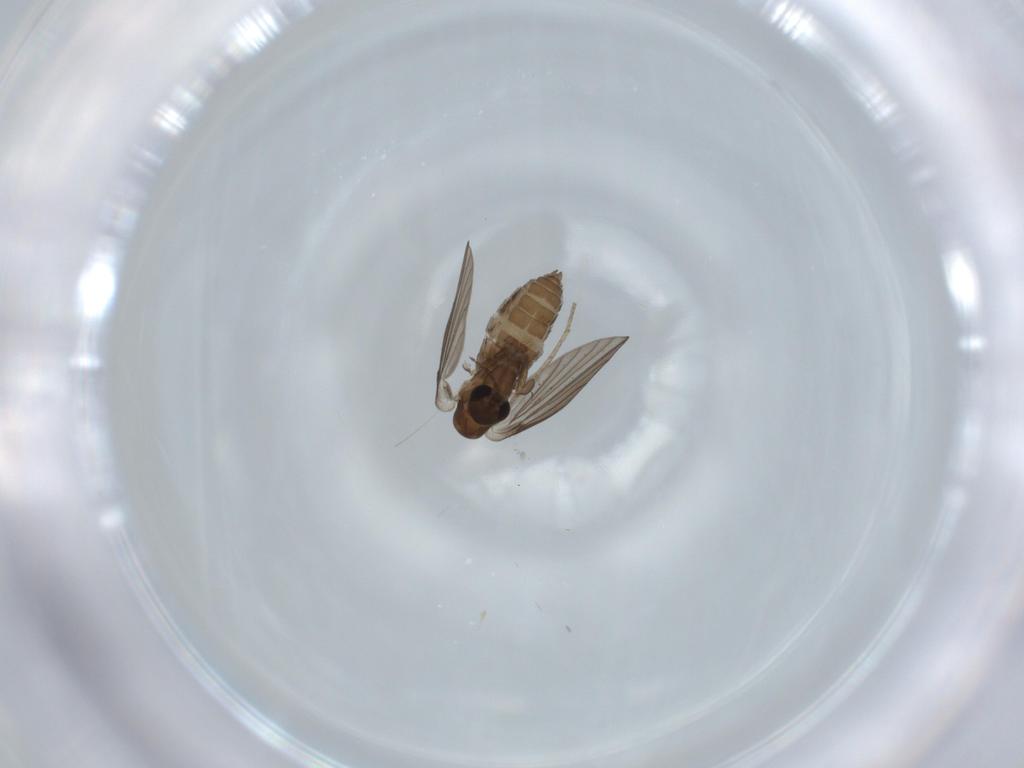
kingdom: Animalia
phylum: Arthropoda
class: Insecta
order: Diptera
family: Psychodidae
